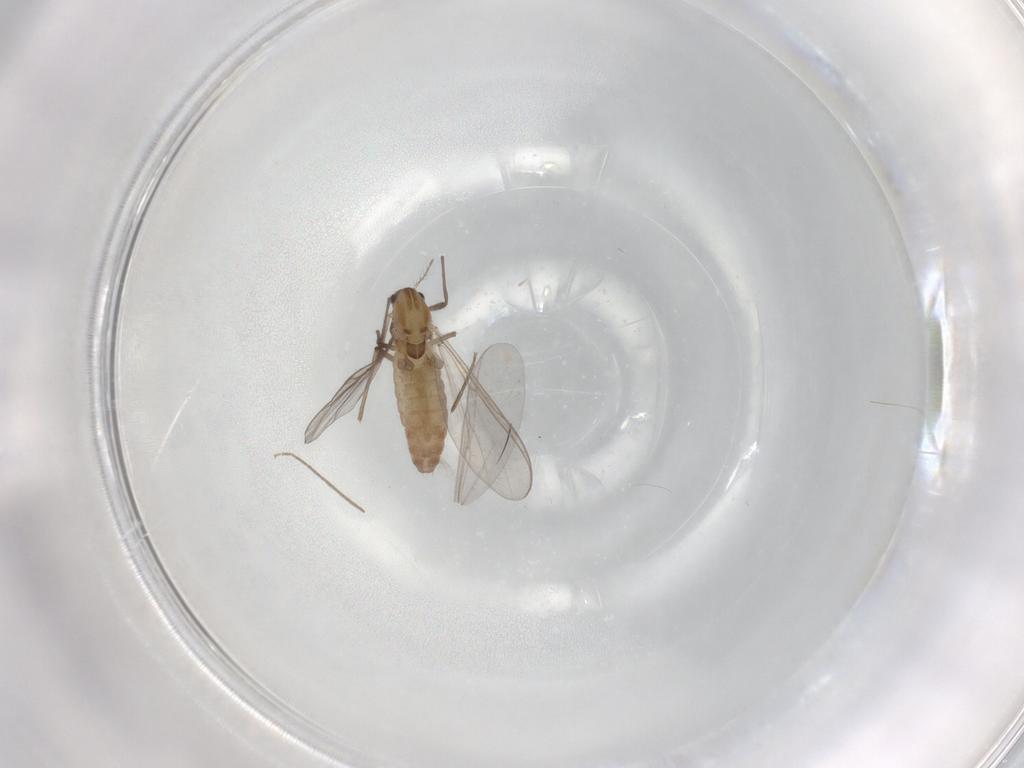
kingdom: Animalia
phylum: Arthropoda
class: Insecta
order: Diptera
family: Chironomidae
